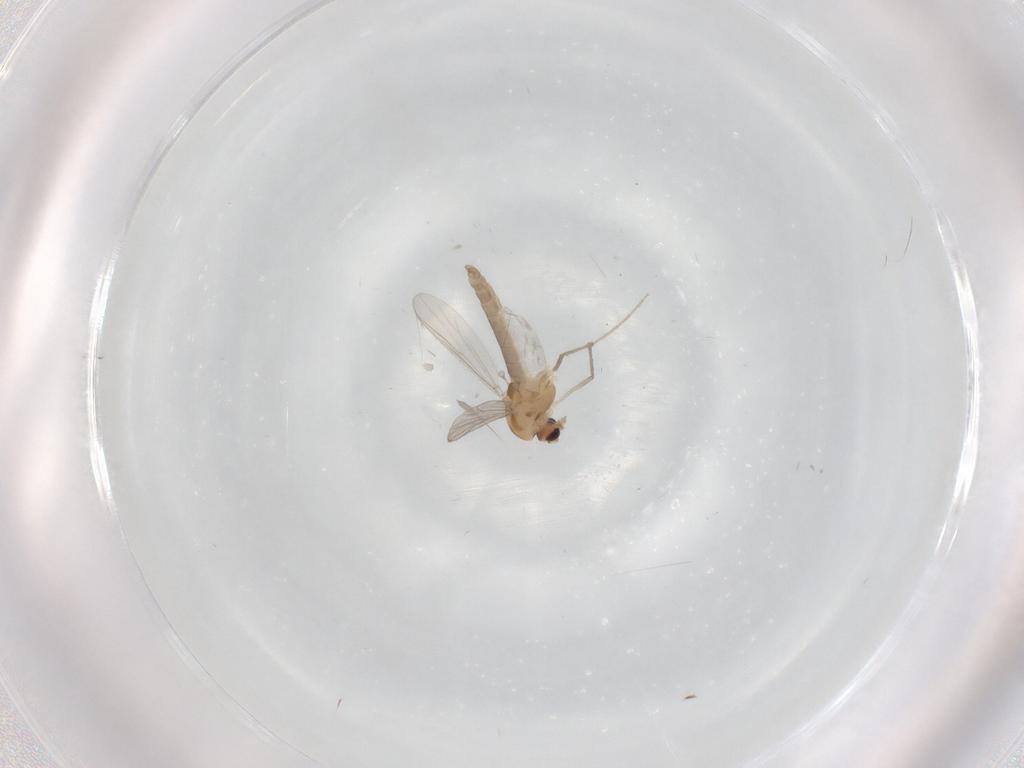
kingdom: Animalia
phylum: Arthropoda
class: Insecta
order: Diptera
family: Chironomidae
